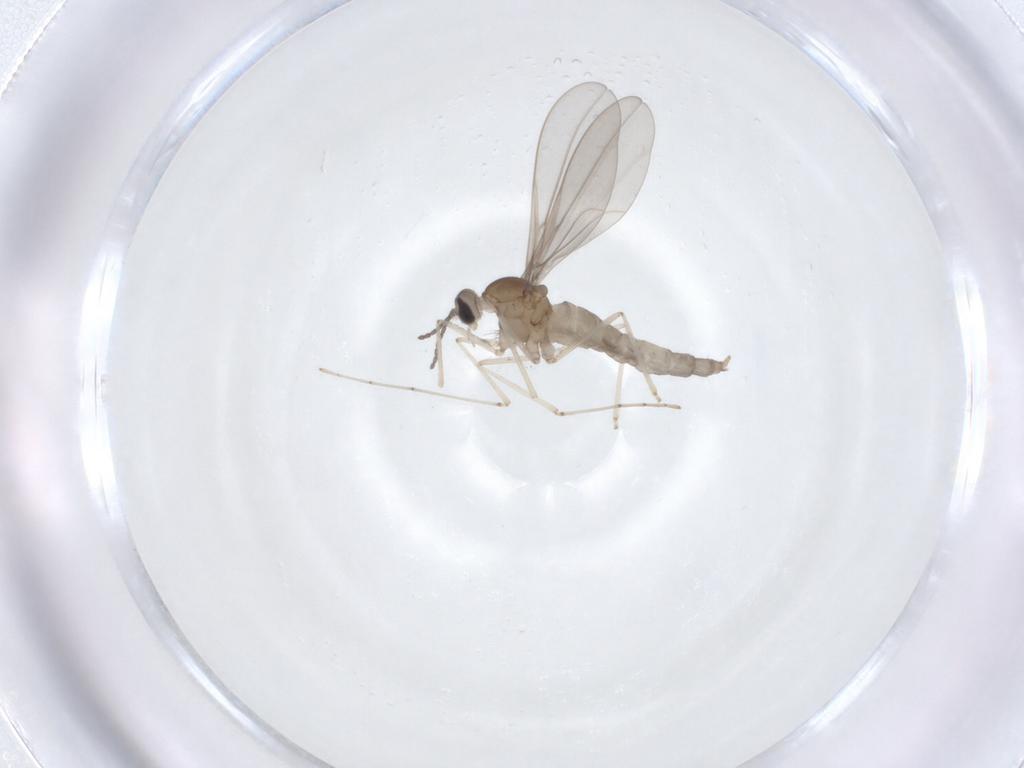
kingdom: Animalia
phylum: Arthropoda
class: Insecta
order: Diptera
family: Cecidomyiidae
